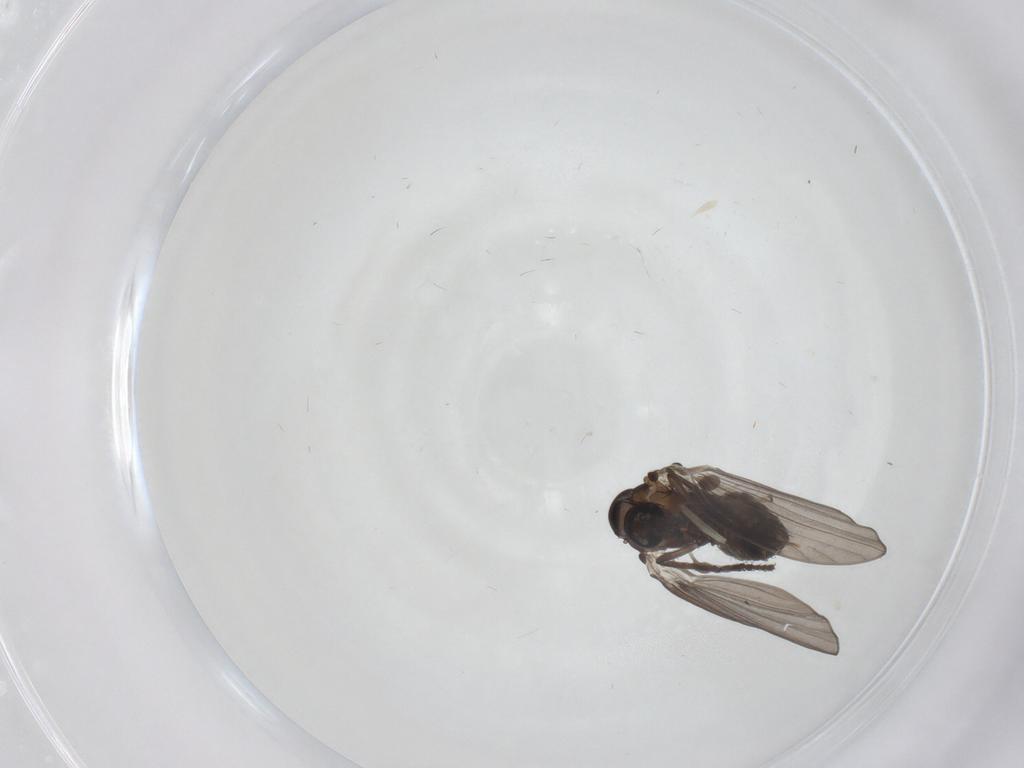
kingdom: Animalia
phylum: Arthropoda
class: Insecta
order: Diptera
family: Psychodidae
